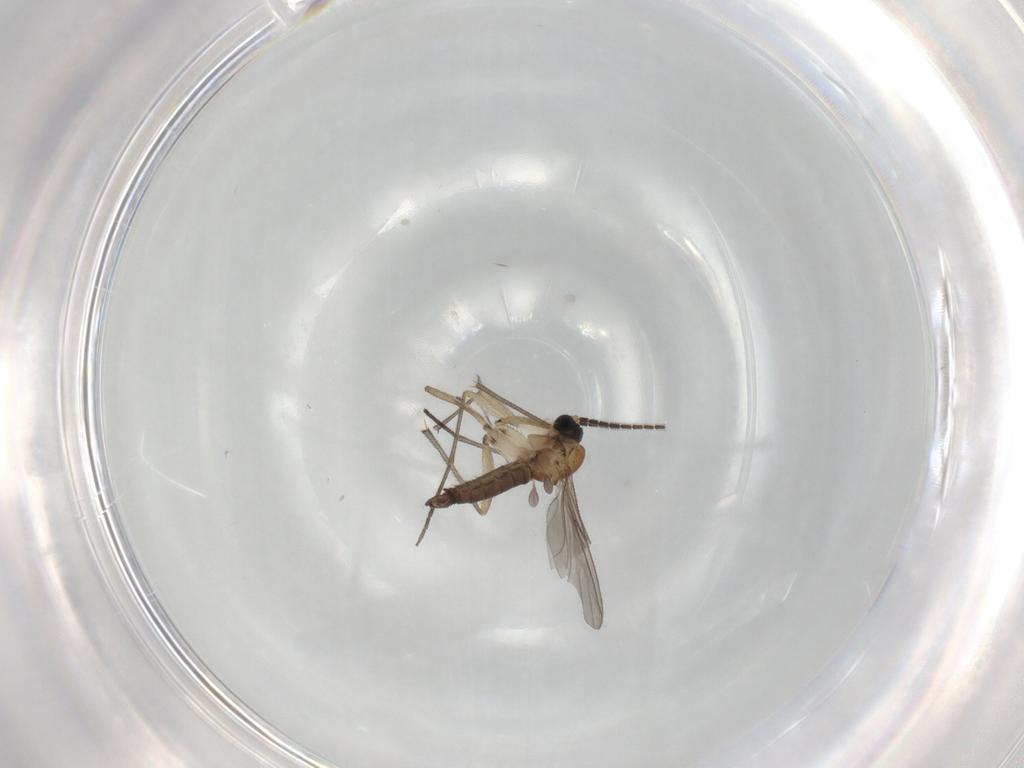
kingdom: Animalia
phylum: Arthropoda
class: Insecta
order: Diptera
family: Sciaridae
